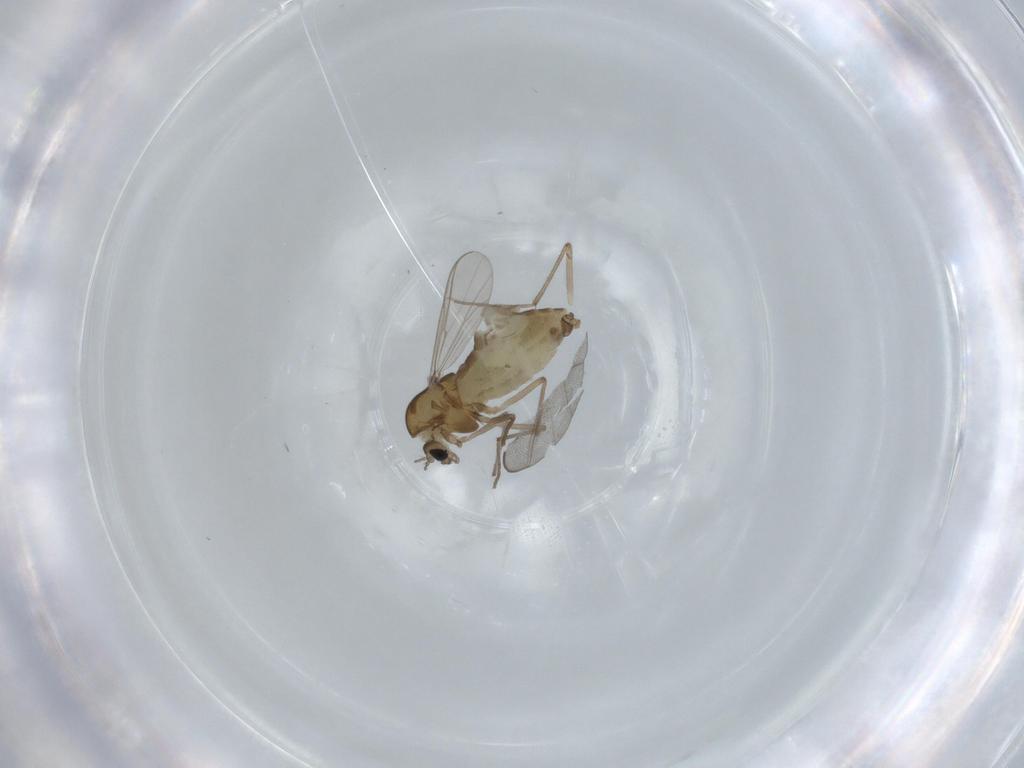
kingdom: Animalia
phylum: Arthropoda
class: Insecta
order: Diptera
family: Chironomidae
